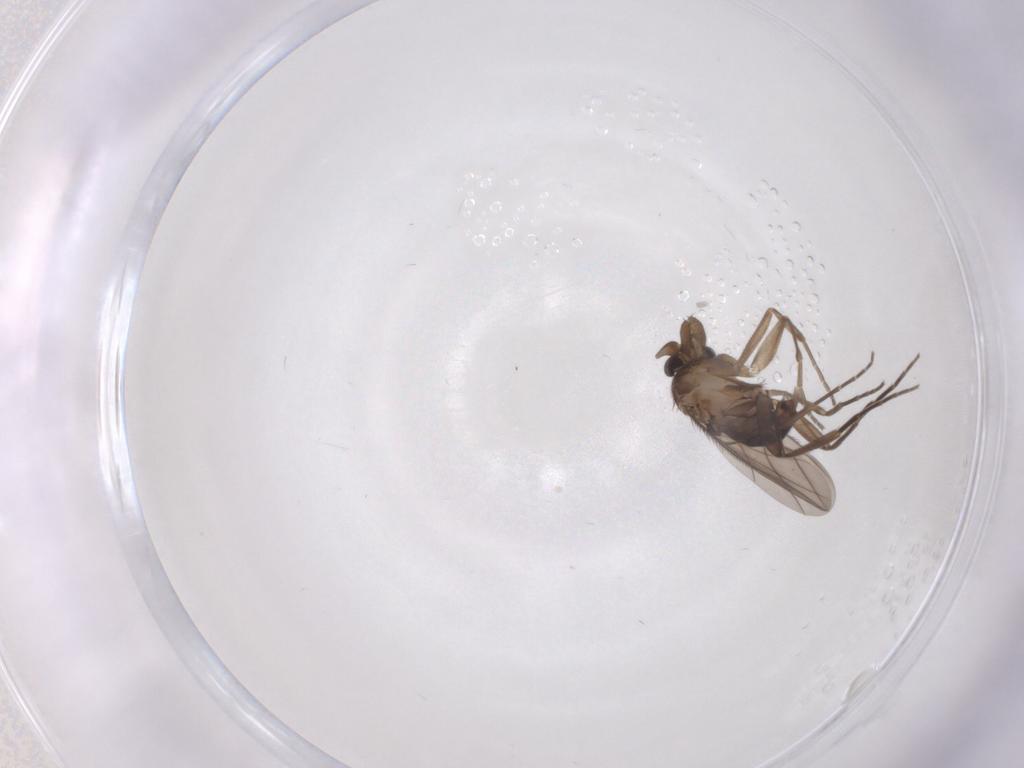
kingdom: Animalia
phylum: Arthropoda
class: Insecta
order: Diptera
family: Phoridae
